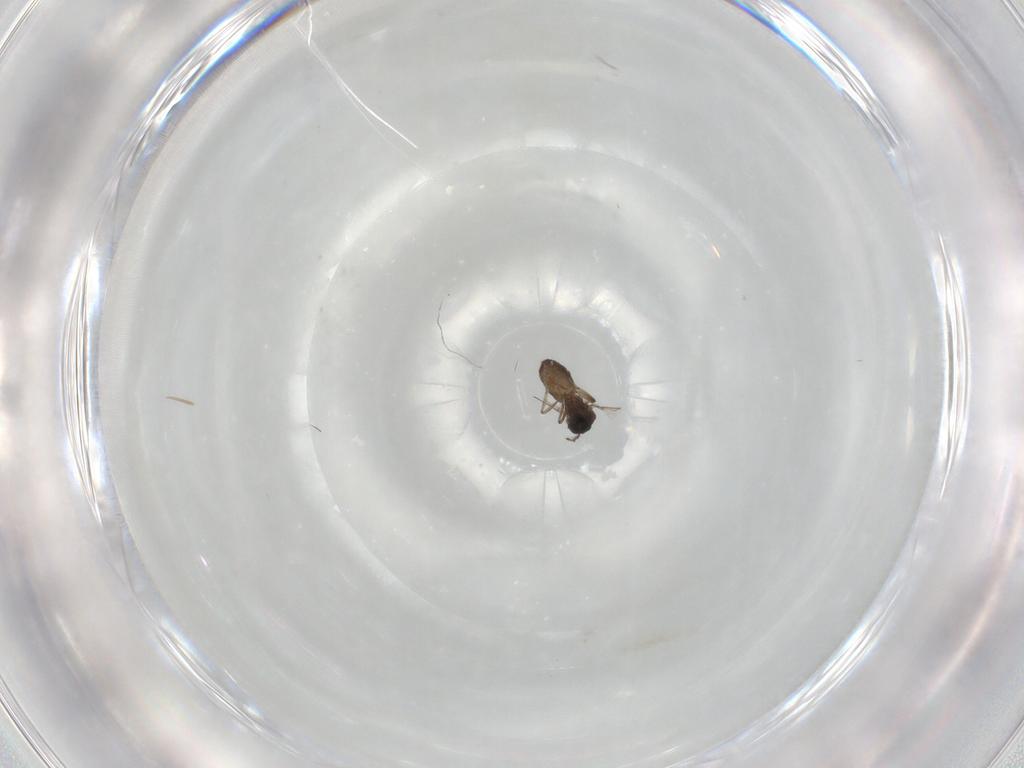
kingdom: Animalia
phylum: Arthropoda
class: Insecta
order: Diptera
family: Ceratopogonidae
